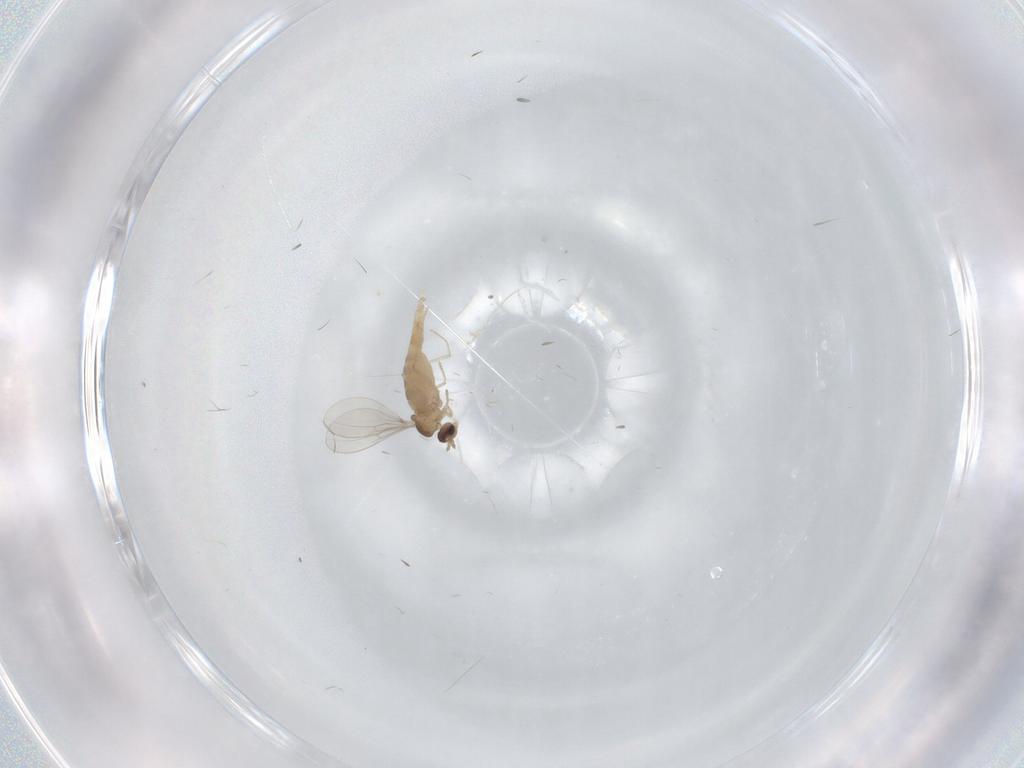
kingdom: Animalia
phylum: Arthropoda
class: Insecta
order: Diptera
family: Cecidomyiidae
